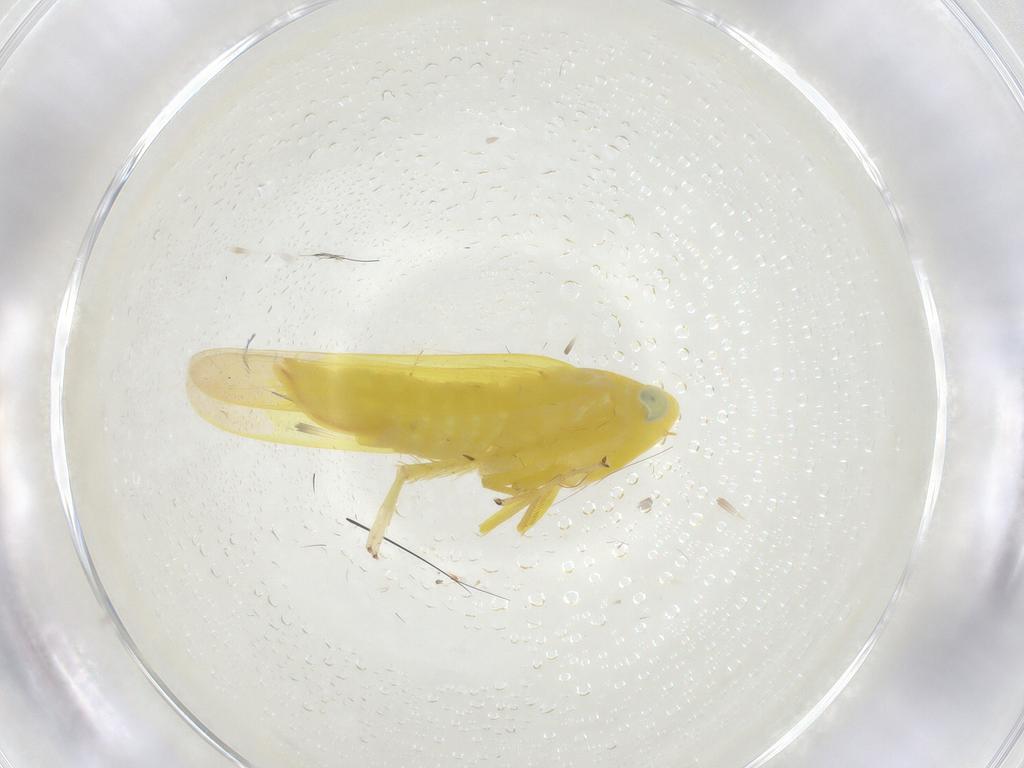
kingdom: Animalia
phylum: Arthropoda
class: Insecta
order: Hemiptera
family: Cicadellidae
